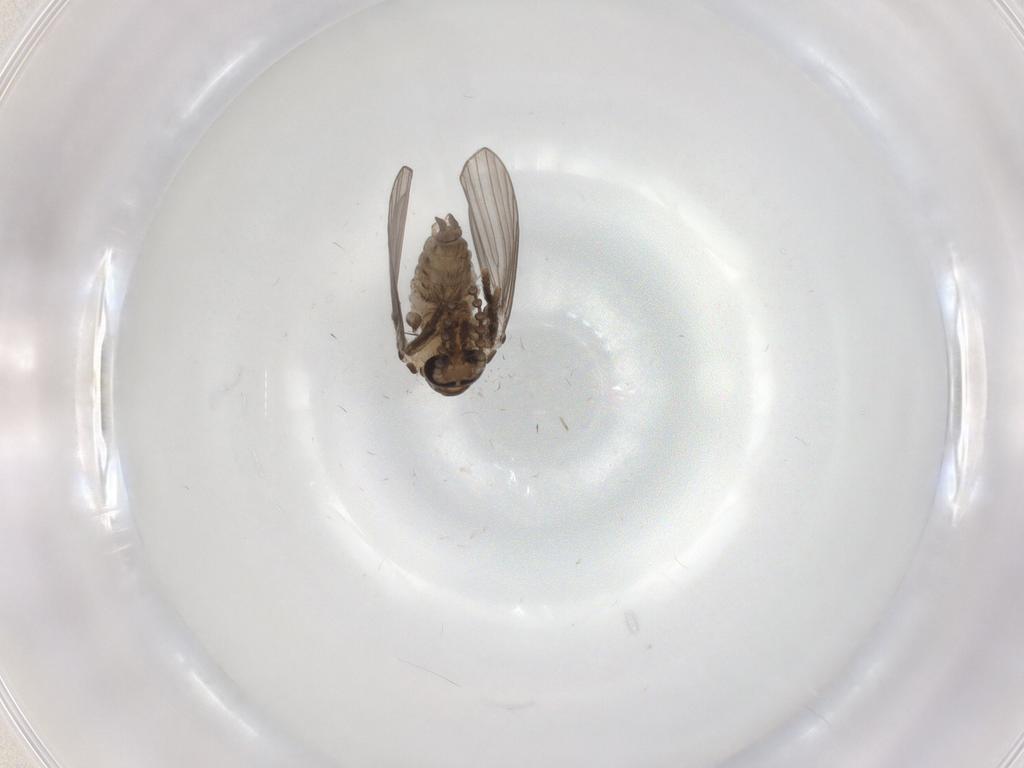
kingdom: Animalia
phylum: Arthropoda
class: Insecta
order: Diptera
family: Psychodidae
